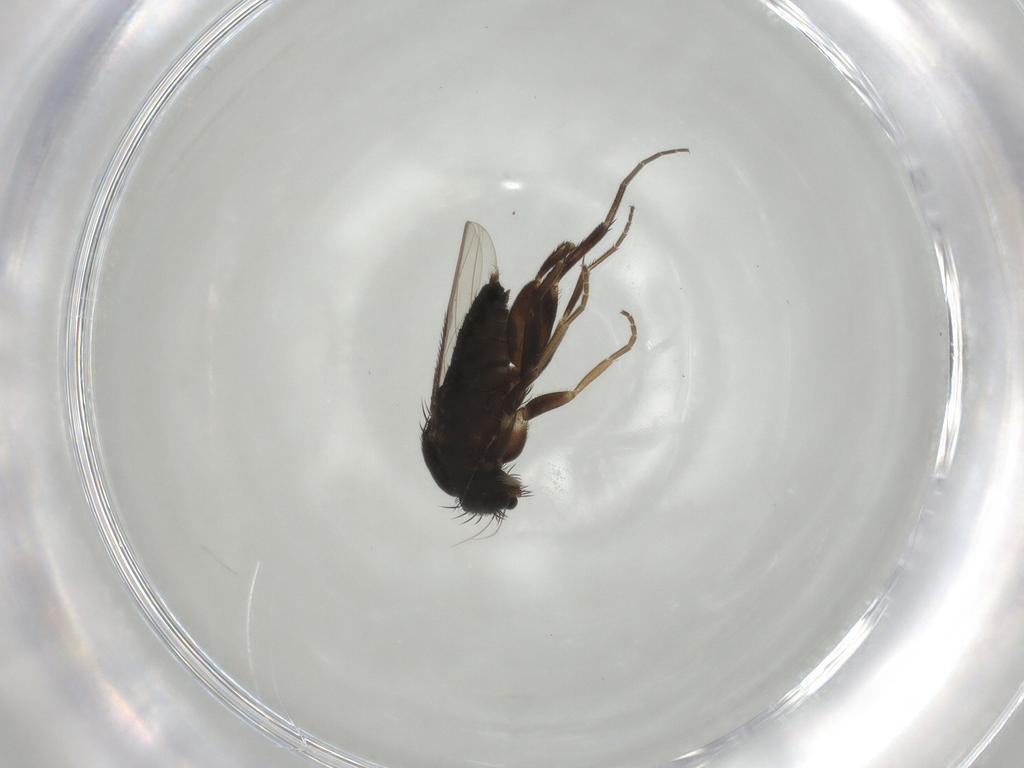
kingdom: Animalia
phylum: Arthropoda
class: Insecta
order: Diptera
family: Phoridae
